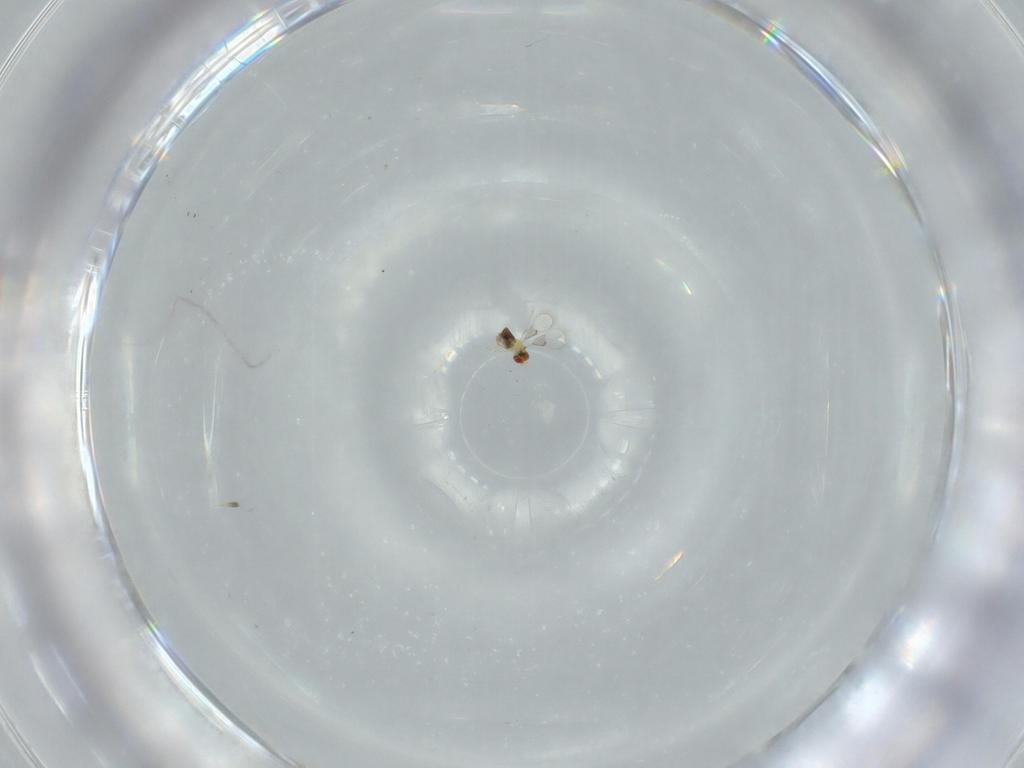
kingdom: Animalia
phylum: Arthropoda
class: Insecta
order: Hymenoptera
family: Trichogrammatidae
